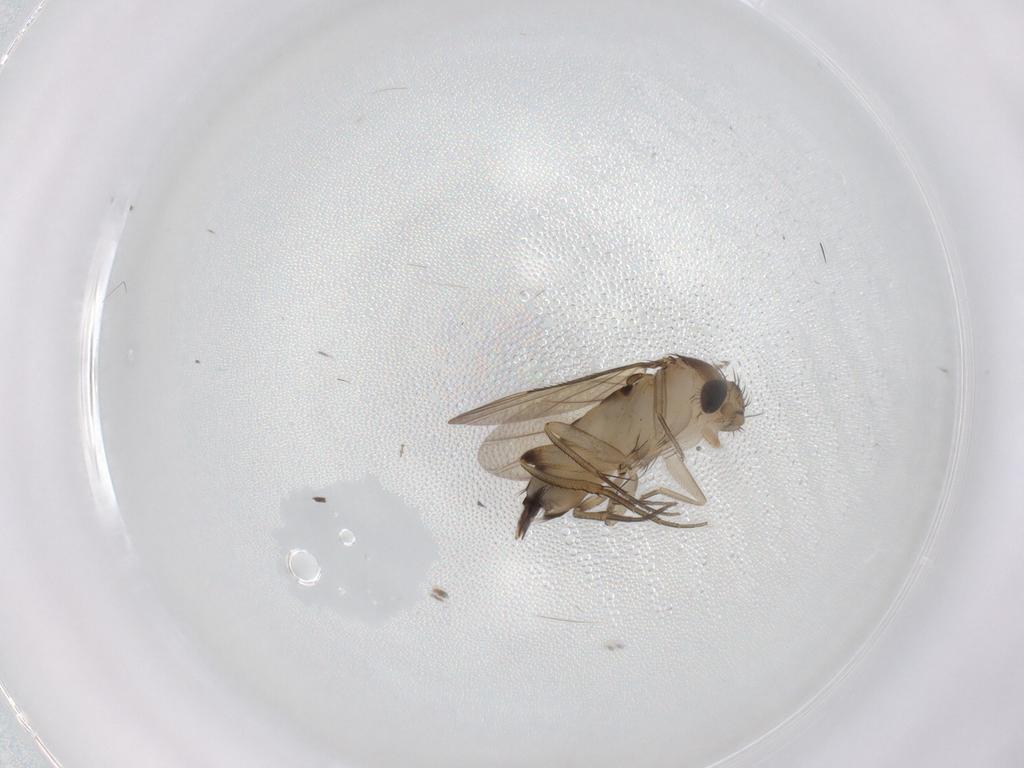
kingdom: Animalia
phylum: Arthropoda
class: Insecta
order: Diptera
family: Phoridae
